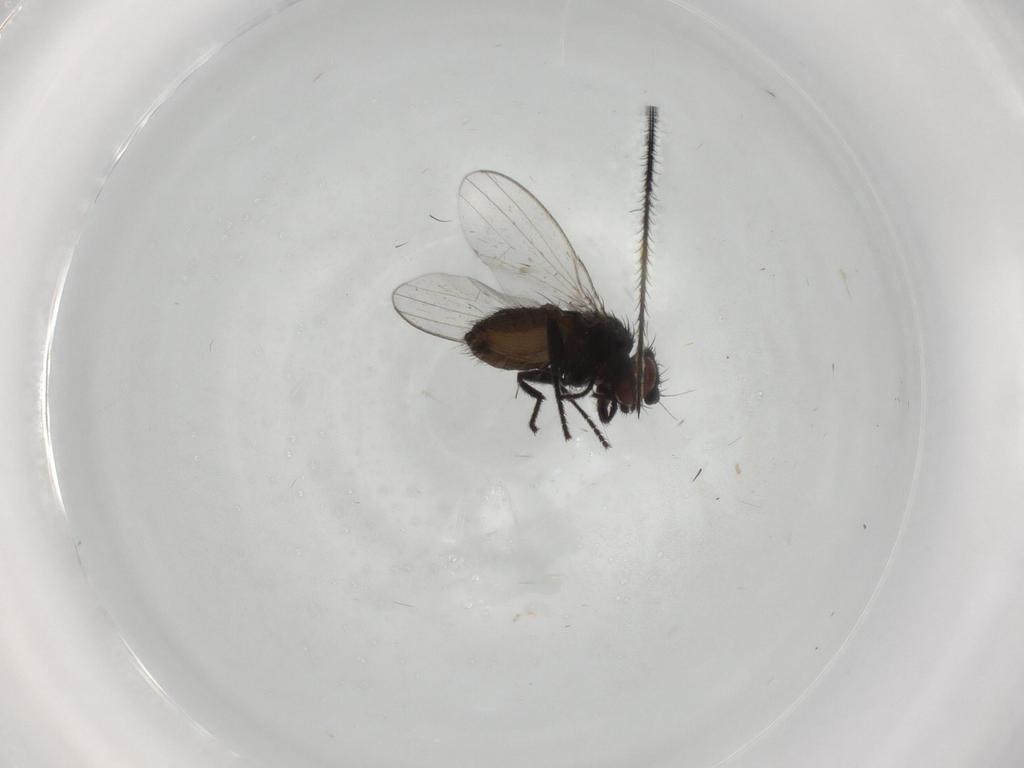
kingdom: Animalia
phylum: Arthropoda
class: Insecta
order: Diptera
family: Milichiidae
